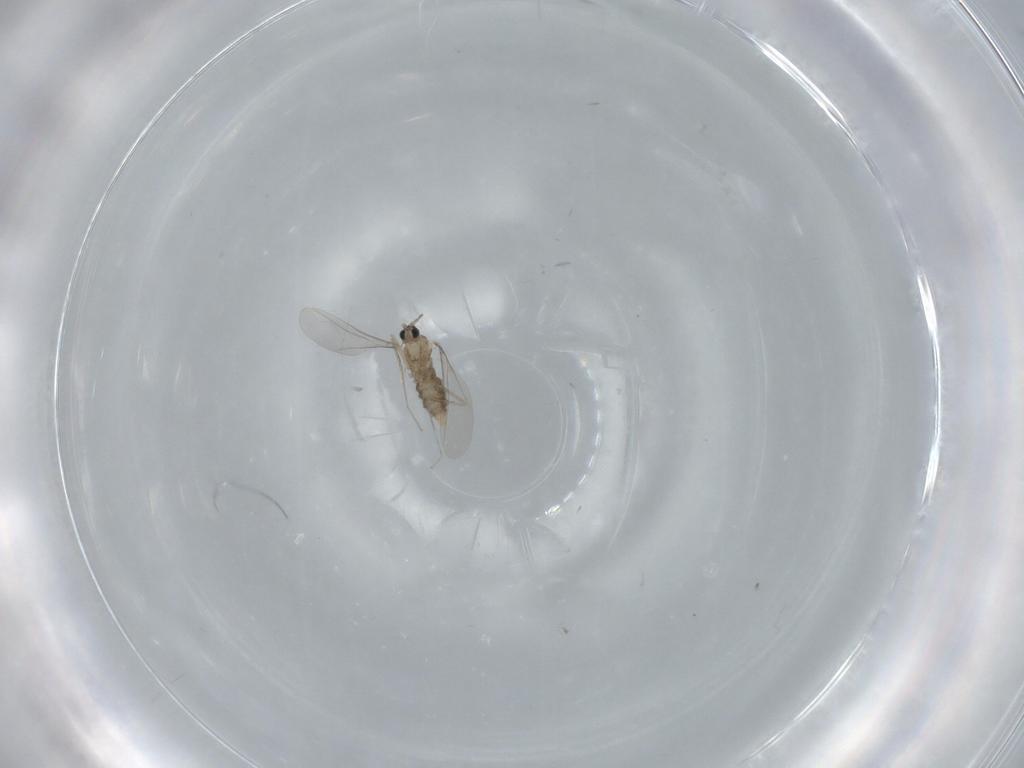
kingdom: Animalia
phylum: Arthropoda
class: Insecta
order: Diptera
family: Cecidomyiidae
